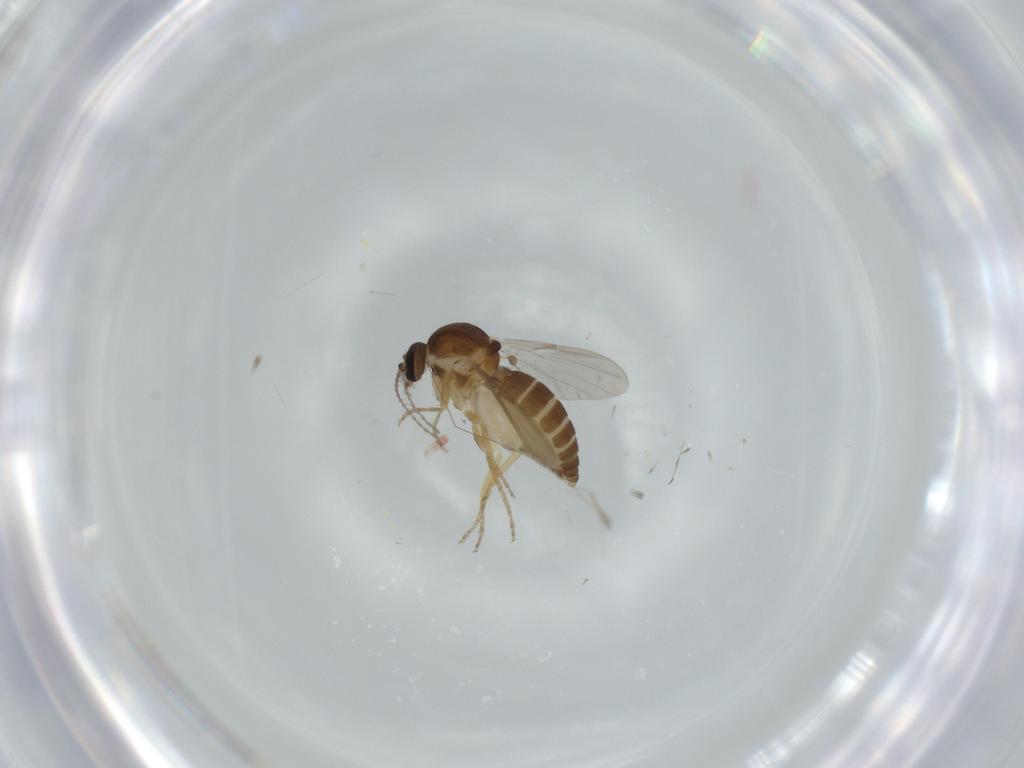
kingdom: Animalia
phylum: Arthropoda
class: Insecta
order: Diptera
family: Ceratopogonidae
